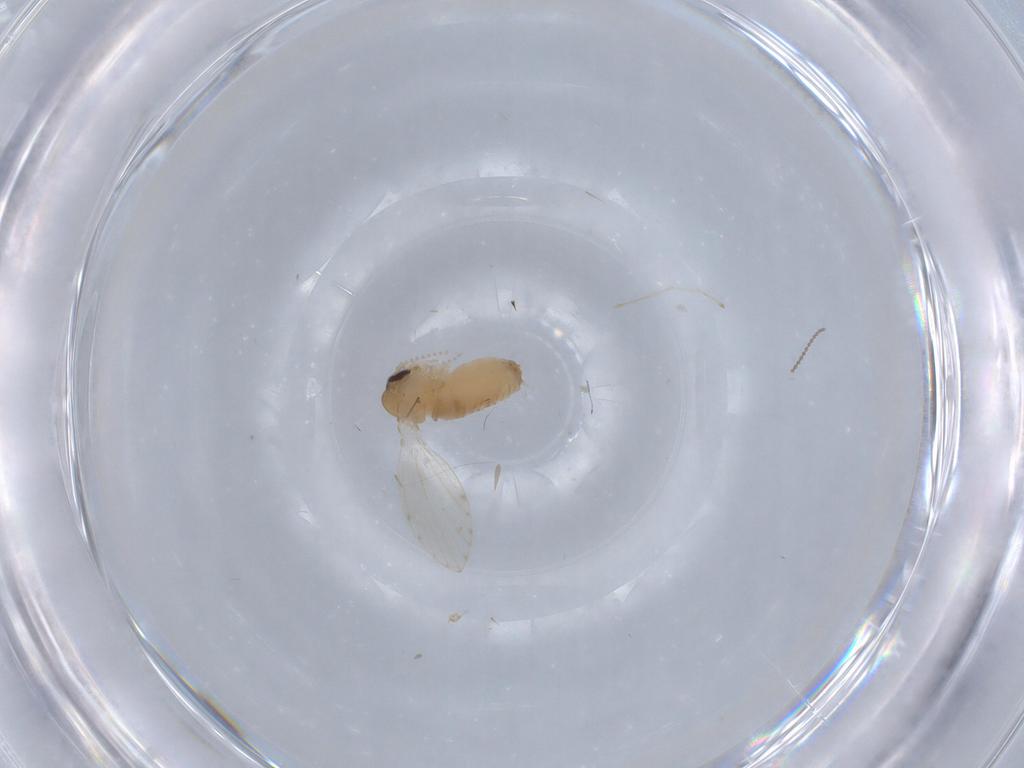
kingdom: Animalia
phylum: Arthropoda
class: Insecta
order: Diptera
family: Psychodidae
